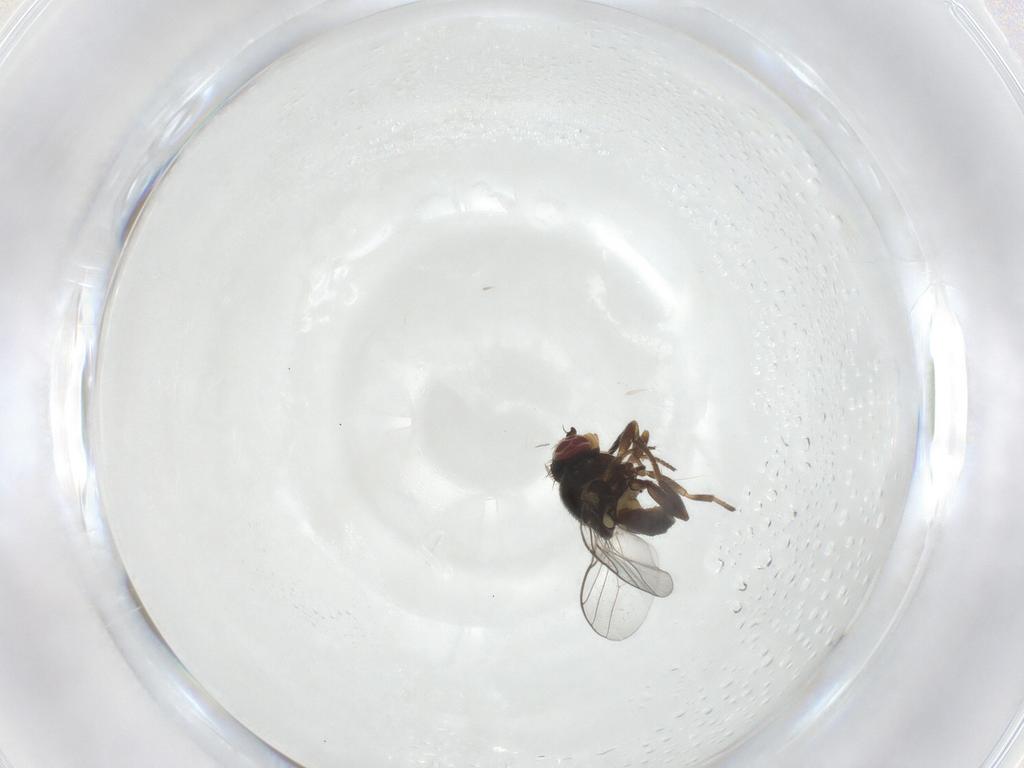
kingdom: Animalia
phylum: Arthropoda
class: Insecta
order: Diptera
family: Chloropidae
